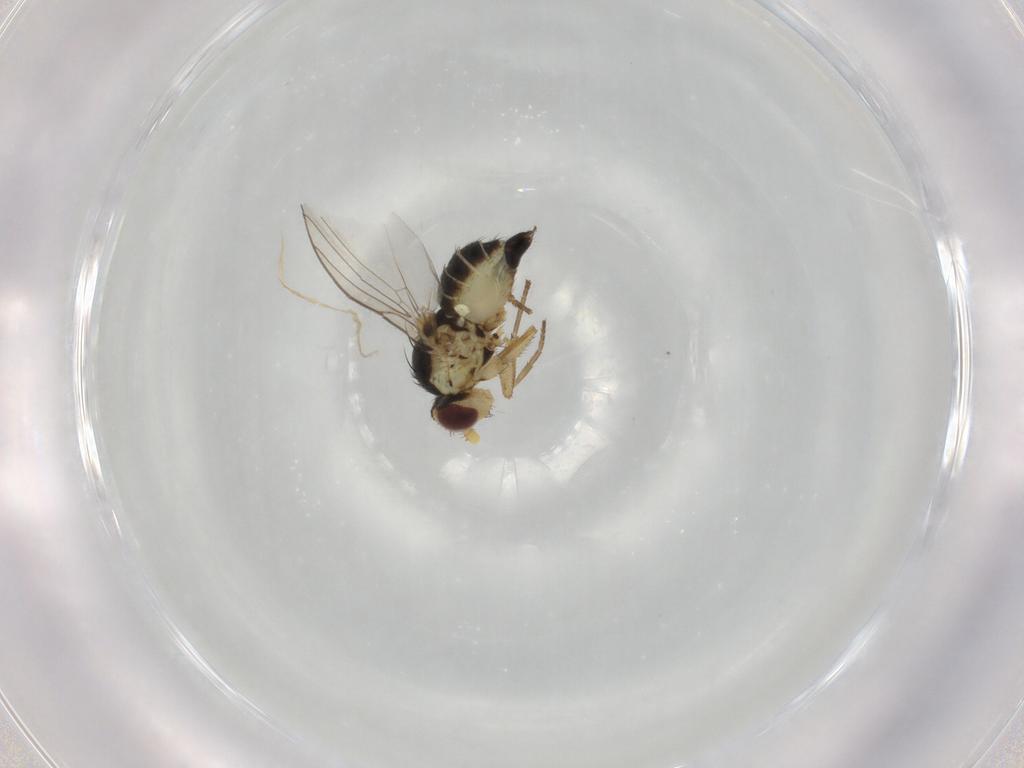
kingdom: Animalia
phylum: Arthropoda
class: Insecta
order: Diptera
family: Agromyzidae
